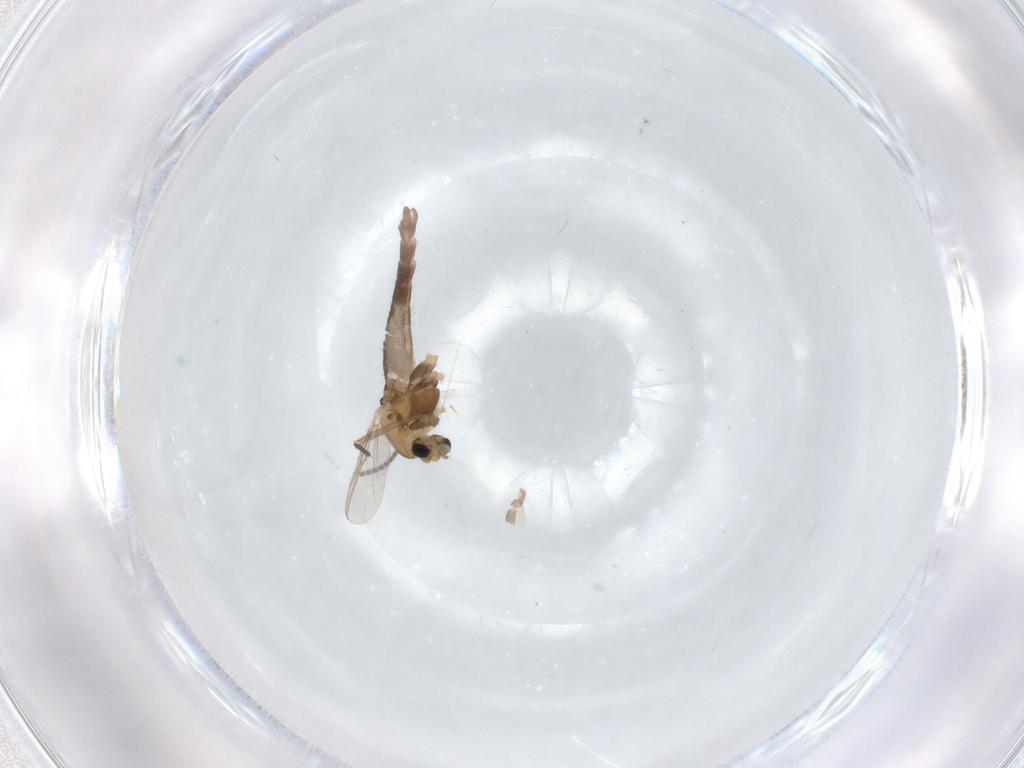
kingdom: Animalia
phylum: Arthropoda
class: Insecta
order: Diptera
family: Chironomidae
